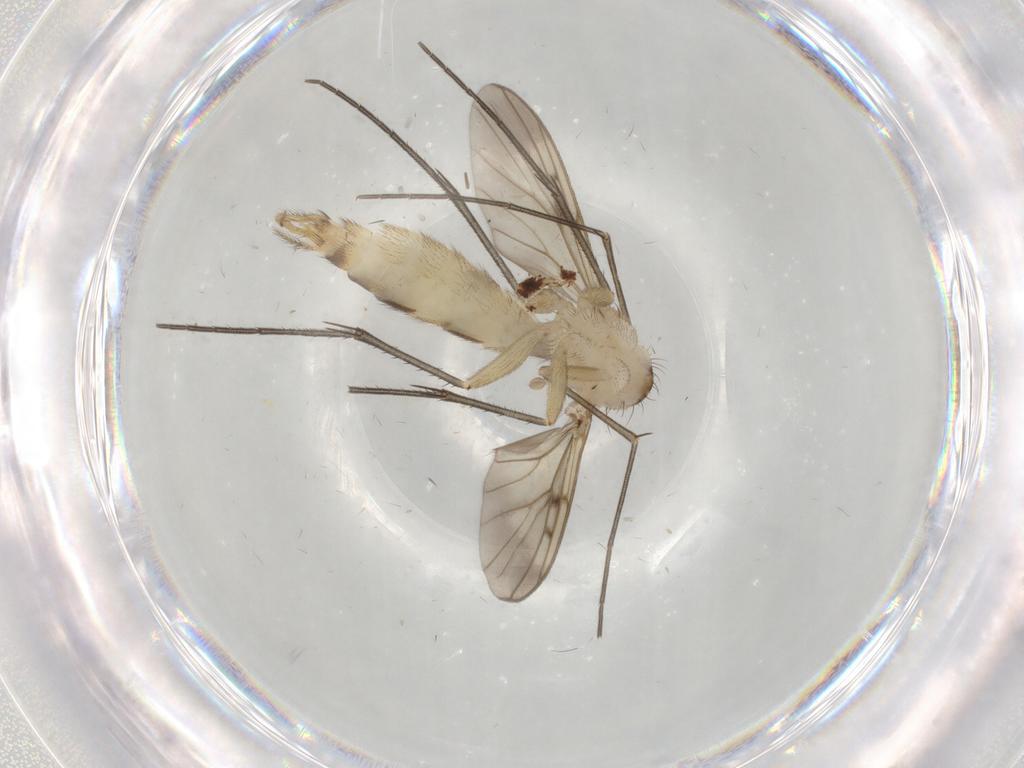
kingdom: Animalia
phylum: Arthropoda
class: Insecta
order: Diptera
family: Mycetophilidae
